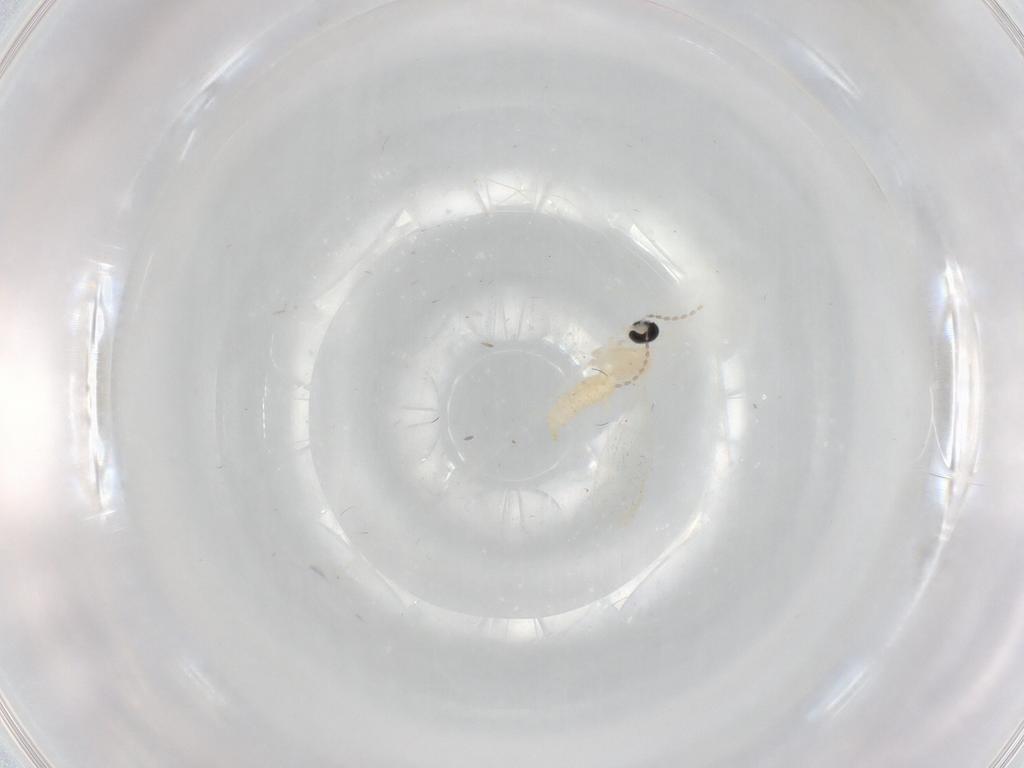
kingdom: Animalia
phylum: Arthropoda
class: Insecta
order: Diptera
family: Cecidomyiidae
